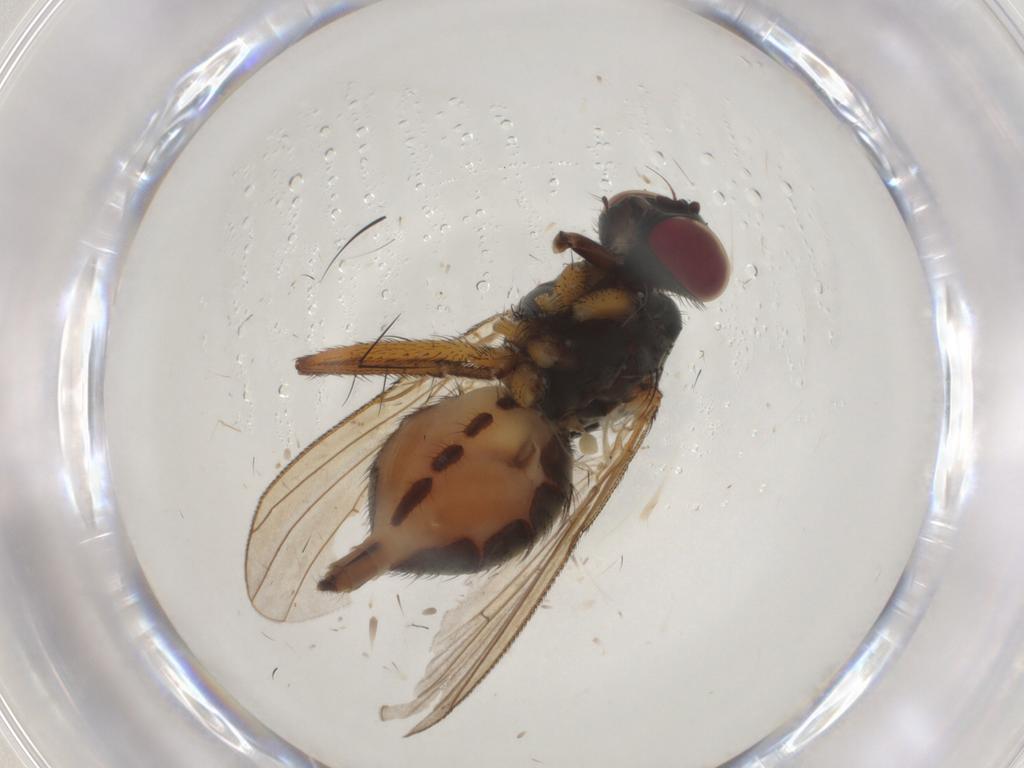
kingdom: Animalia
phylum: Arthropoda
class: Insecta
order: Diptera
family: Muscidae
